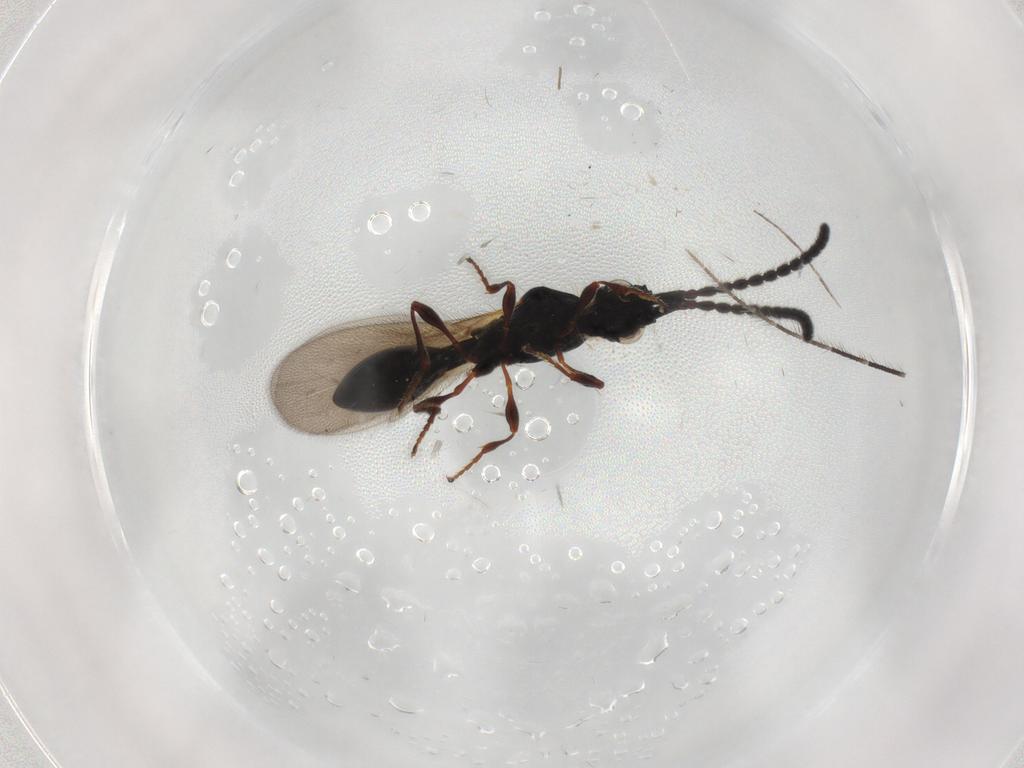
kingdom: Animalia
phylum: Arthropoda
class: Insecta
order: Hymenoptera
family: Diapriidae
